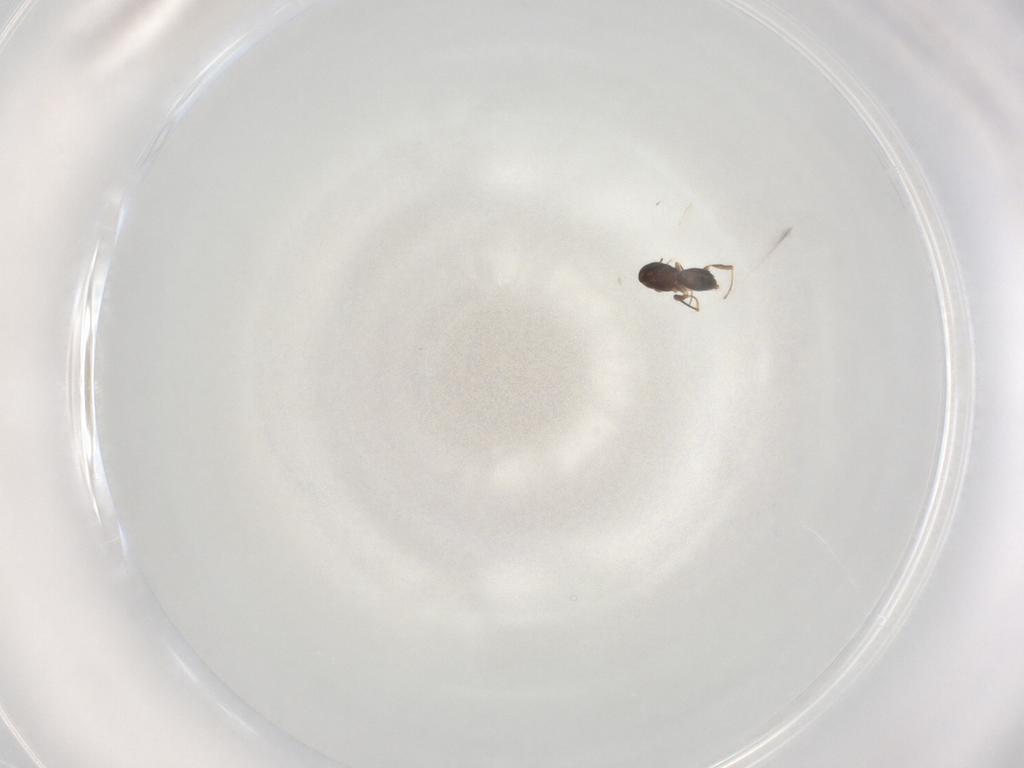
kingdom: Animalia
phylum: Arthropoda
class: Insecta
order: Hymenoptera
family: Megaspilidae
